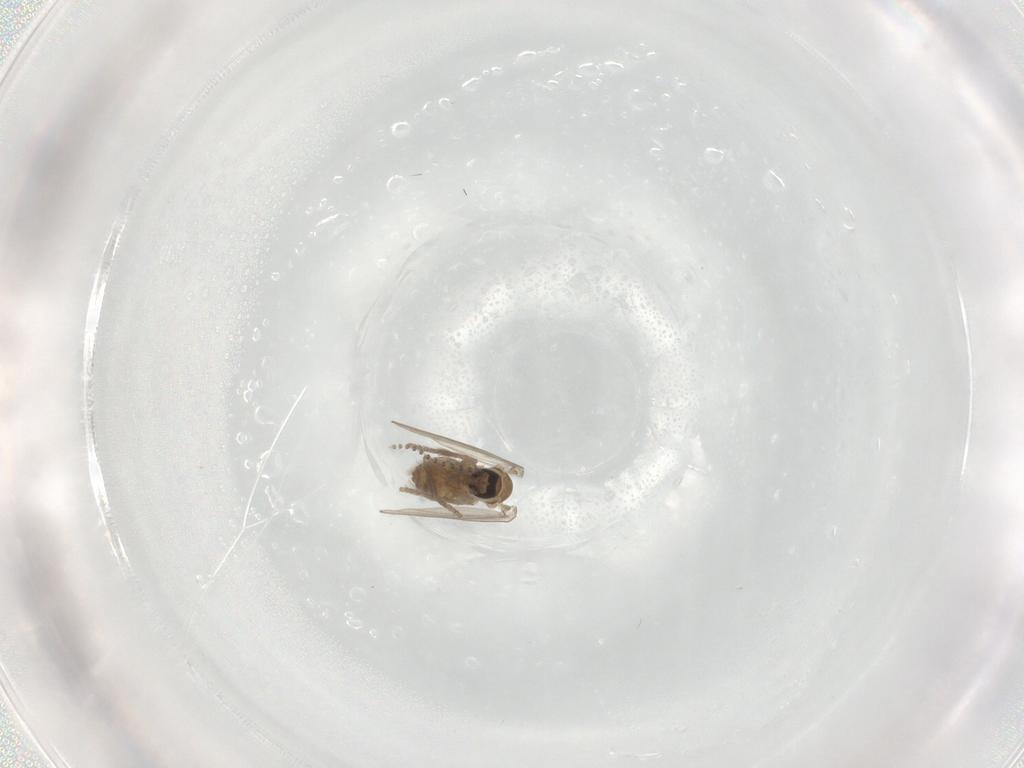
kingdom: Animalia
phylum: Arthropoda
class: Insecta
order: Diptera
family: Psychodidae
